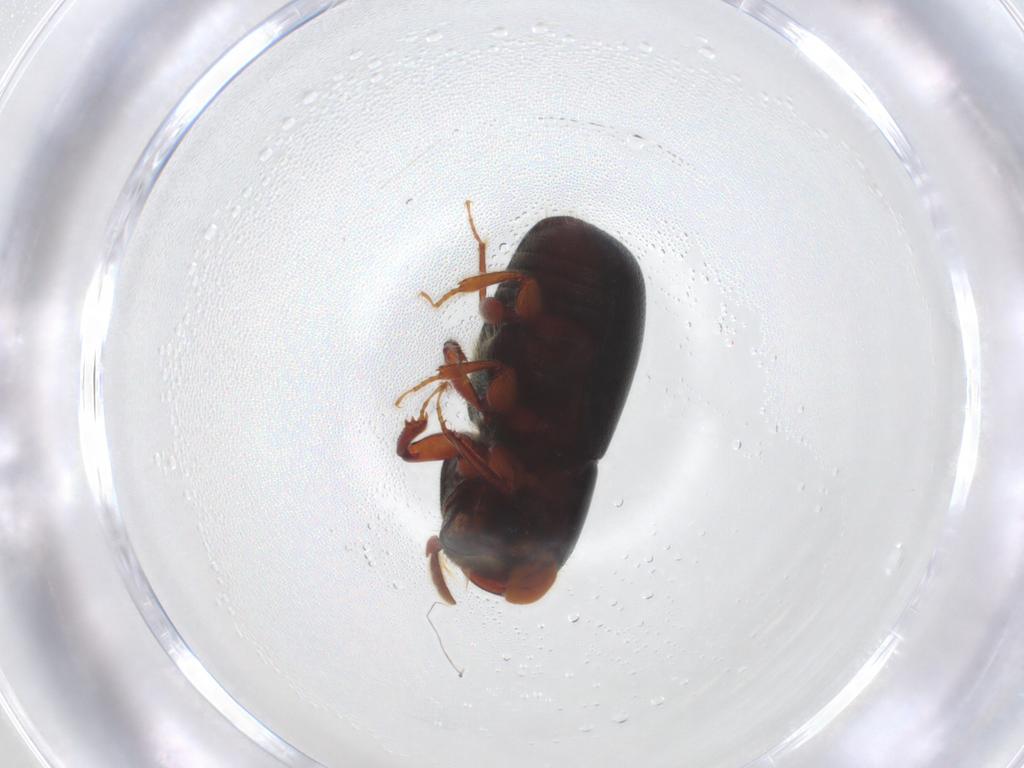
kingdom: Animalia
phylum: Arthropoda
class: Insecta
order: Coleoptera
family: Curculionidae
